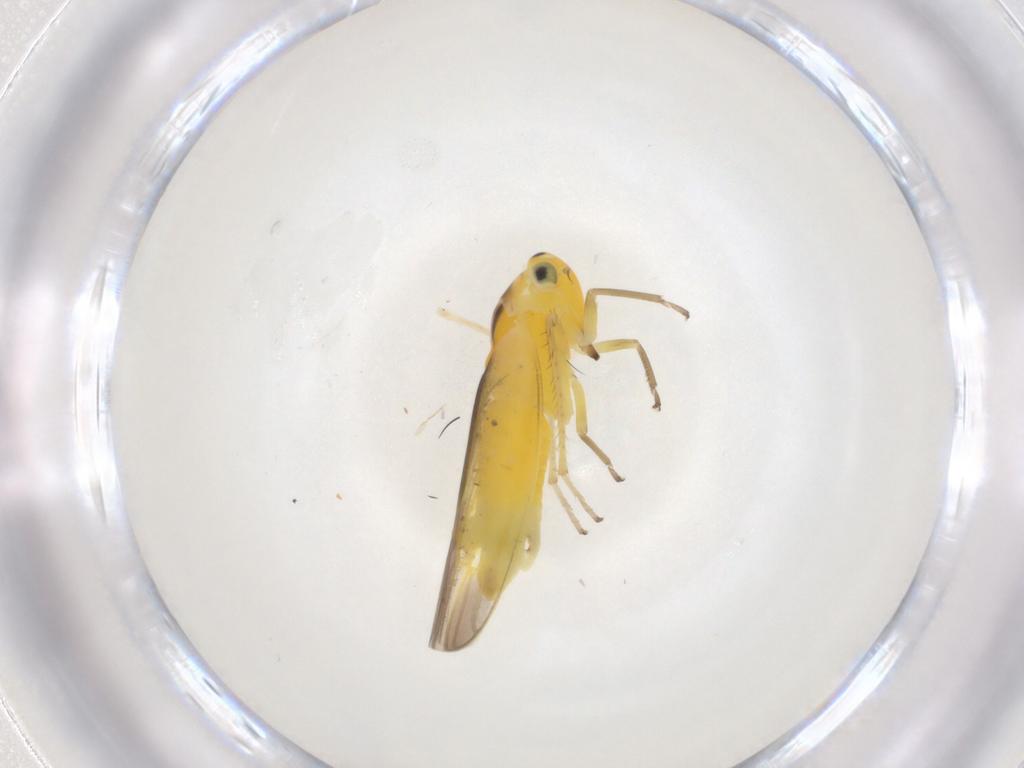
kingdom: Animalia
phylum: Arthropoda
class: Insecta
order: Hemiptera
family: Cicadellidae
